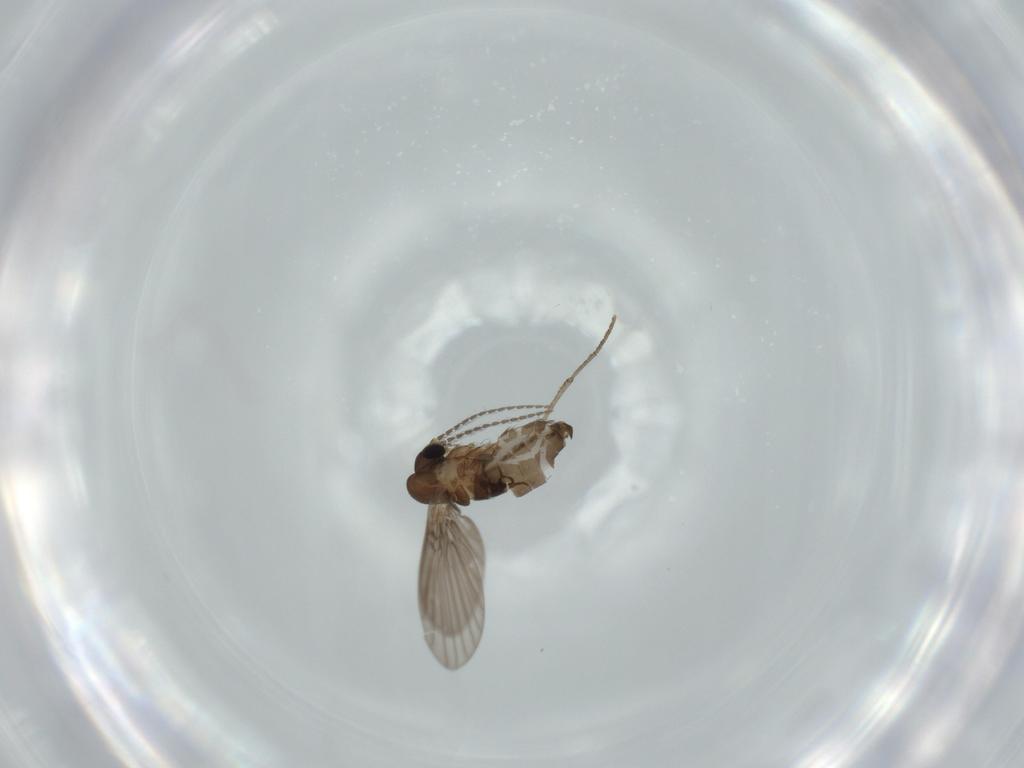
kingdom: Animalia
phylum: Arthropoda
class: Insecta
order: Diptera
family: Psychodidae
